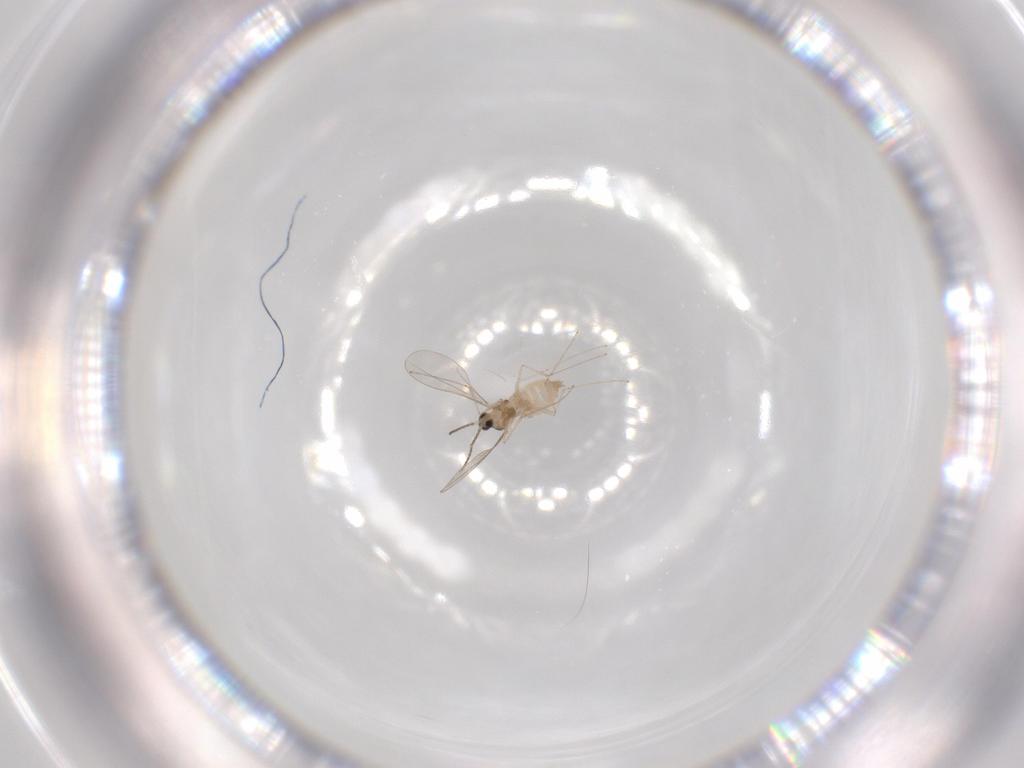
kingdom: Animalia
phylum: Arthropoda
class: Insecta
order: Diptera
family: Cecidomyiidae
